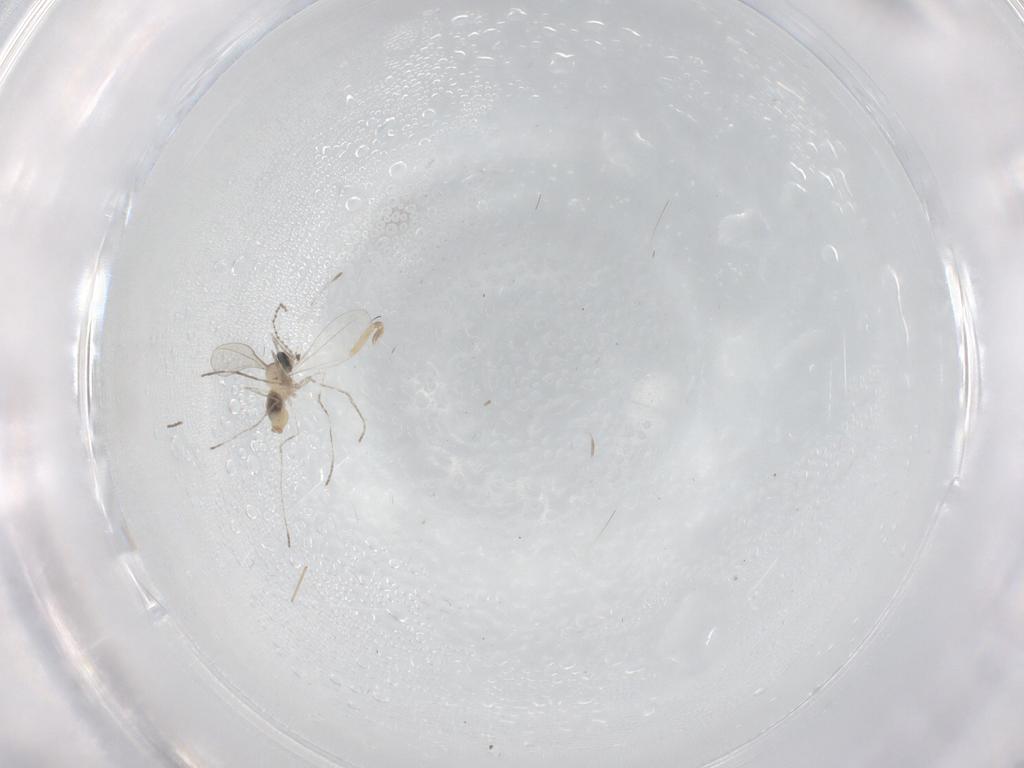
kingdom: Animalia
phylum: Arthropoda
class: Insecta
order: Diptera
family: Cecidomyiidae
